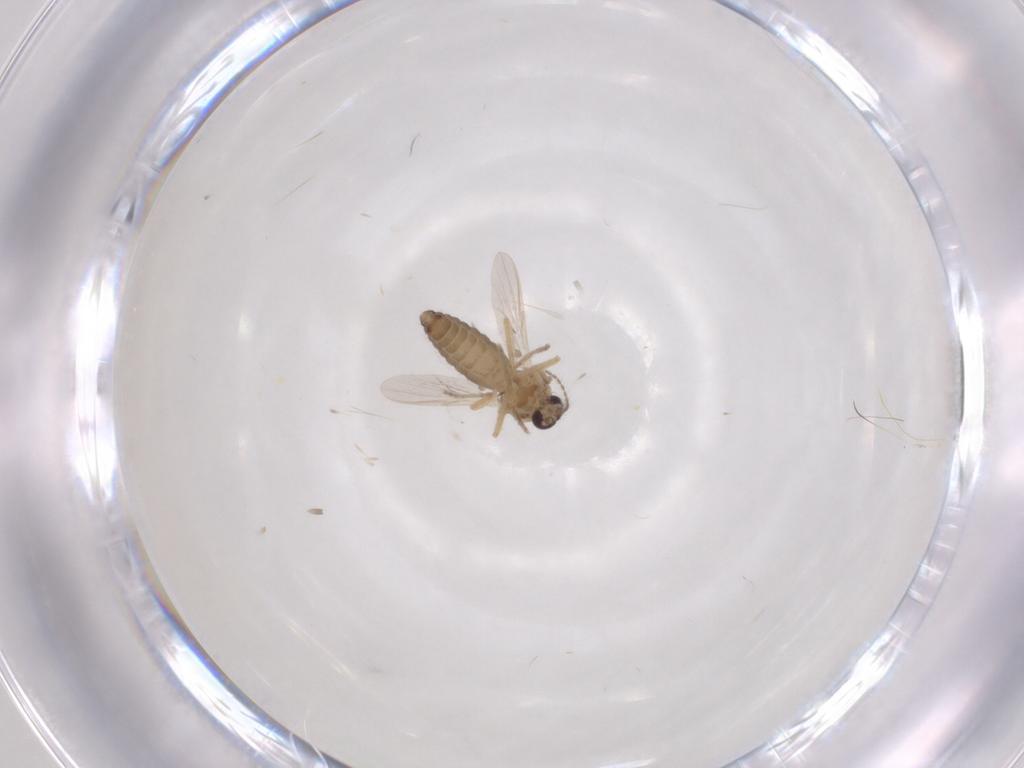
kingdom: Animalia
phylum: Arthropoda
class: Insecta
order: Diptera
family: Ceratopogonidae
